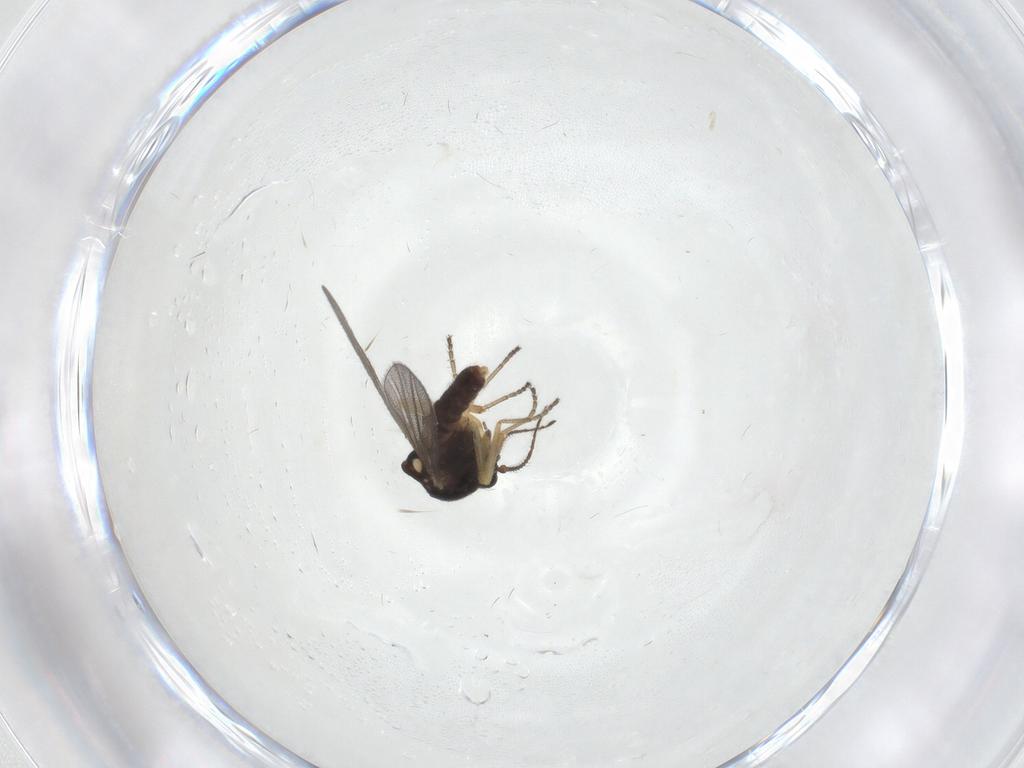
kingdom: Animalia
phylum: Arthropoda
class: Insecta
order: Diptera
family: Ceratopogonidae
